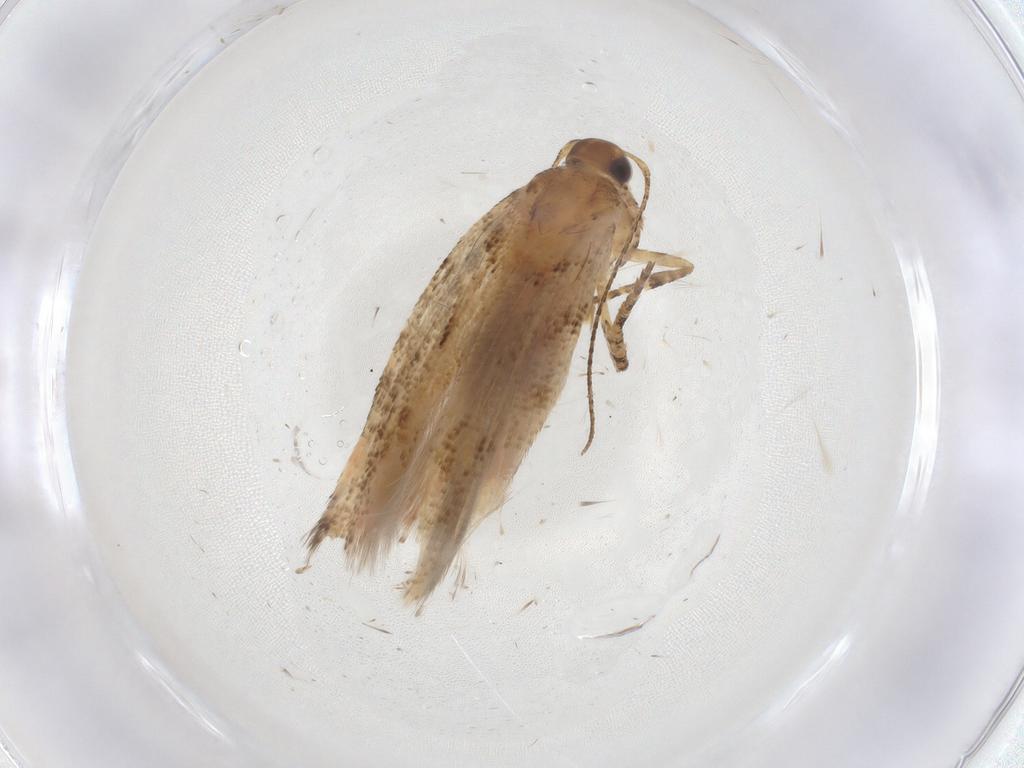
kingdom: Animalia
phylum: Arthropoda
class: Insecta
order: Lepidoptera
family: Gelechiidae
